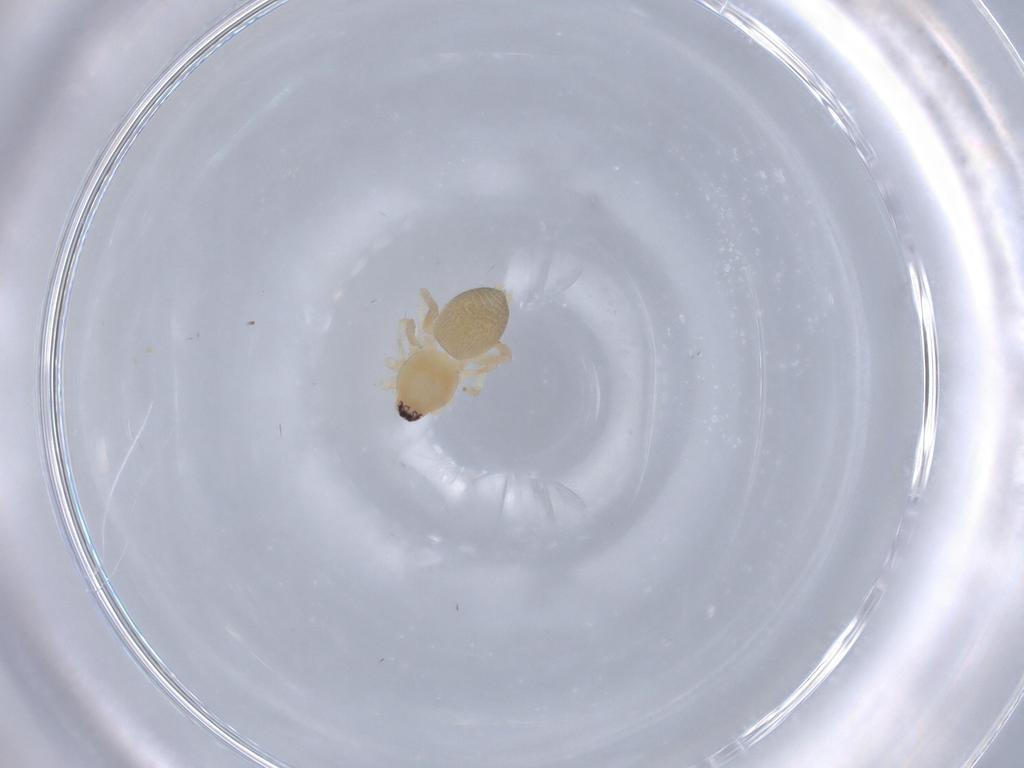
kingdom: Animalia
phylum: Arthropoda
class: Arachnida
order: Araneae
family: Corinnidae
